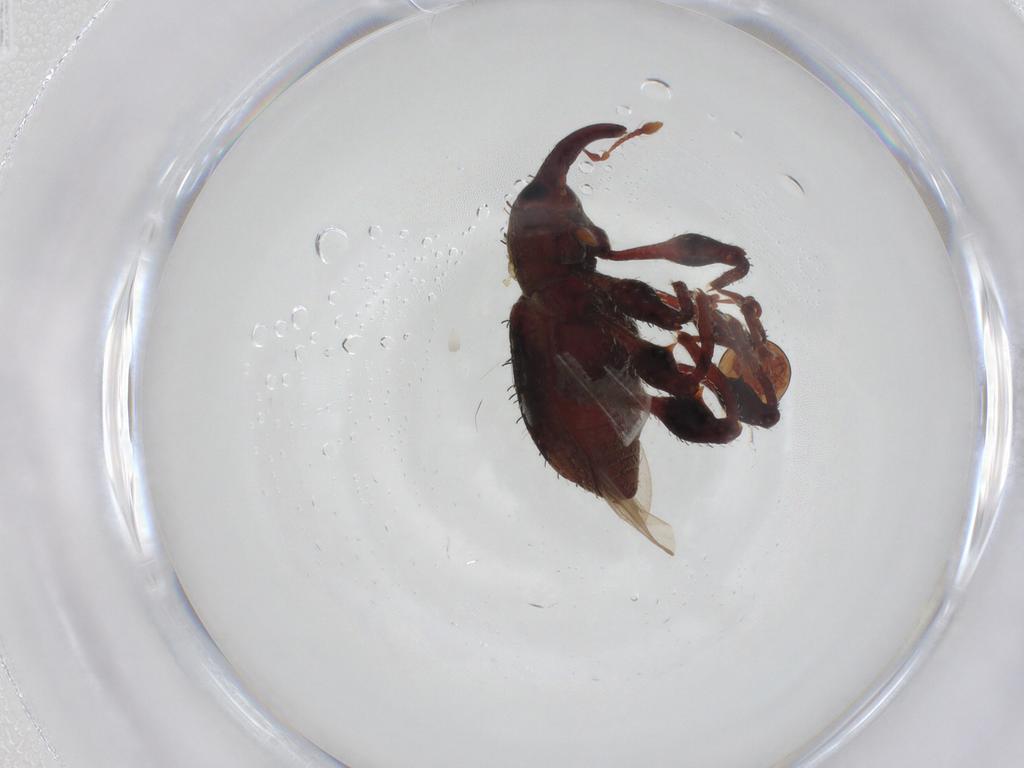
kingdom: Animalia
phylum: Arthropoda
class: Insecta
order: Coleoptera
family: Curculionidae
